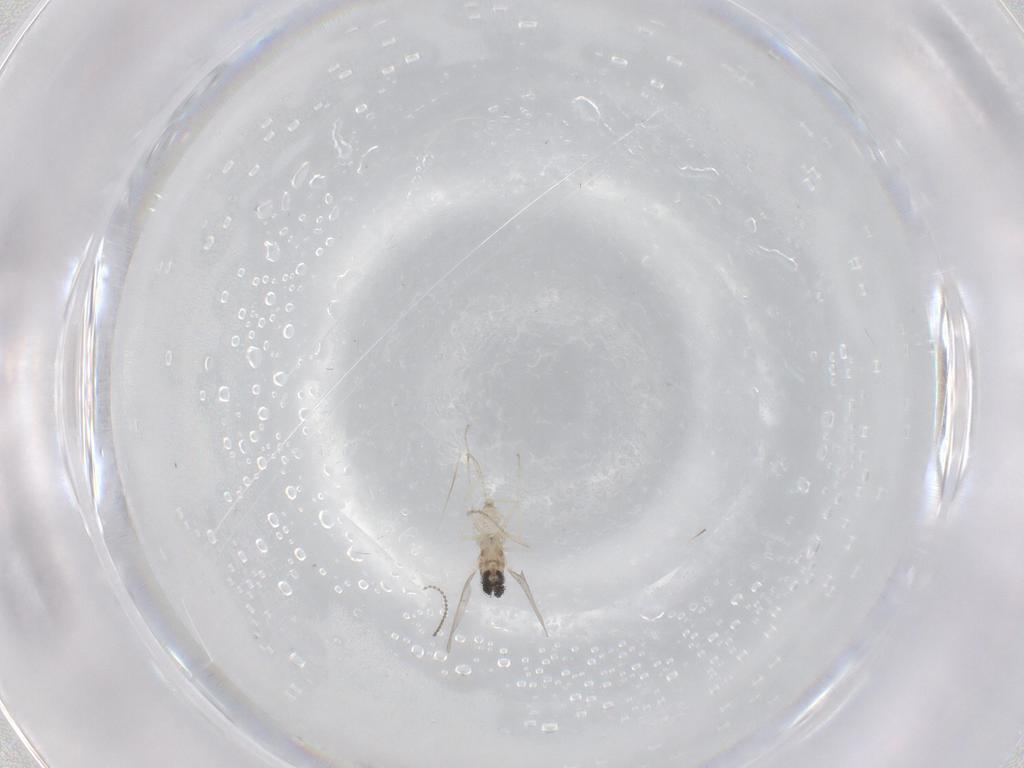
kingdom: Animalia
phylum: Arthropoda
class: Insecta
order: Diptera
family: Cecidomyiidae
